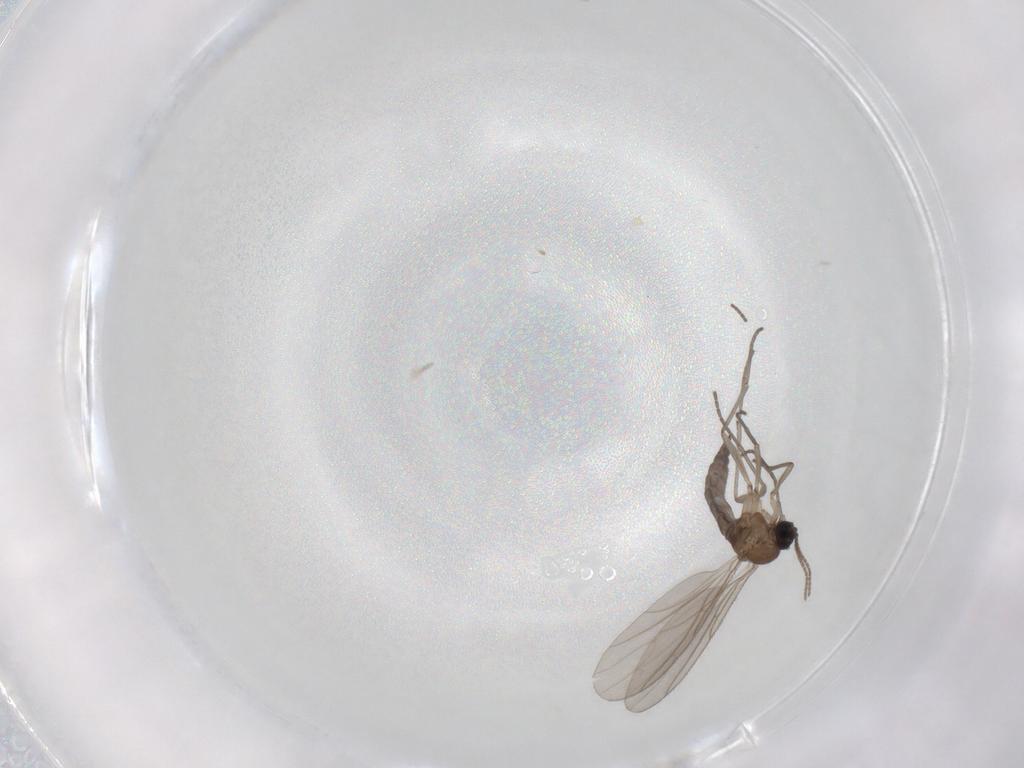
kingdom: Animalia
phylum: Arthropoda
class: Insecta
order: Diptera
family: Sciaridae
